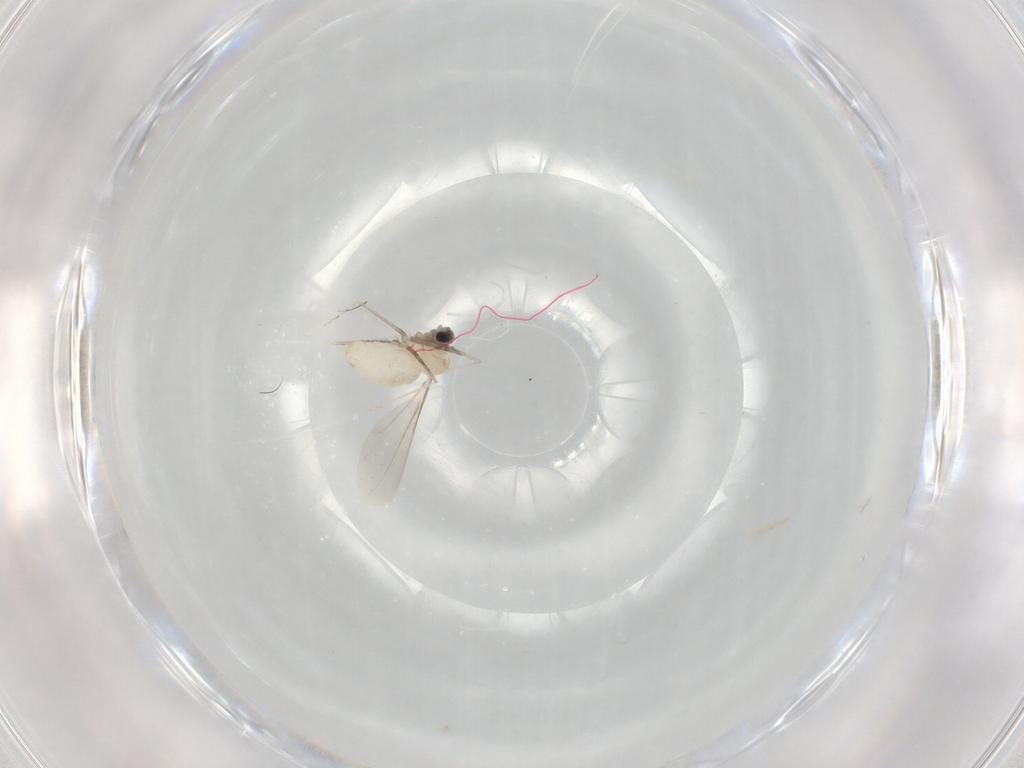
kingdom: Animalia
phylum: Arthropoda
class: Insecta
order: Diptera
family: Cecidomyiidae
